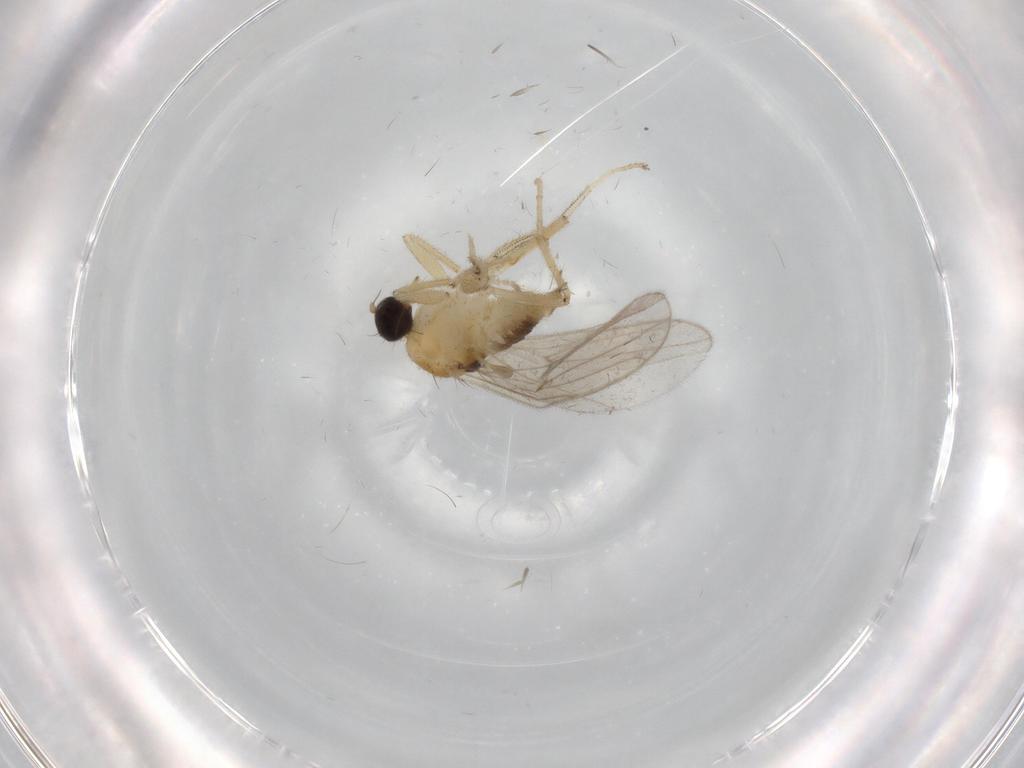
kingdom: Animalia
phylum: Arthropoda
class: Insecta
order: Diptera
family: Hybotidae
